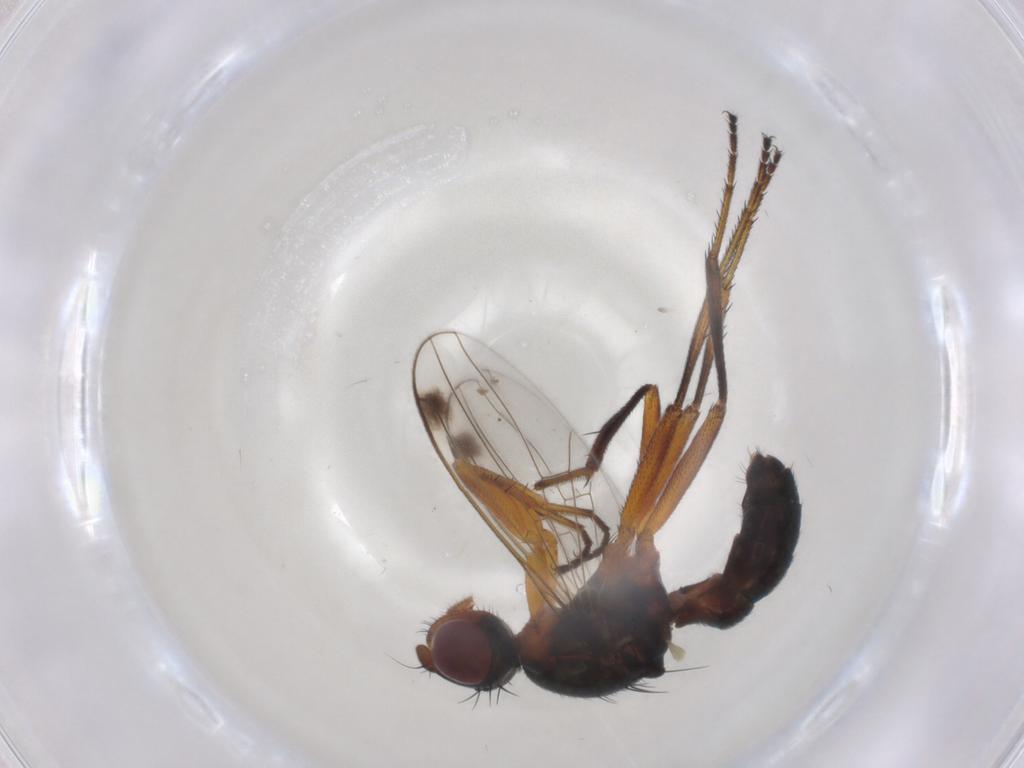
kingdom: Animalia
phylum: Arthropoda
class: Insecta
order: Diptera
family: Sepsidae
